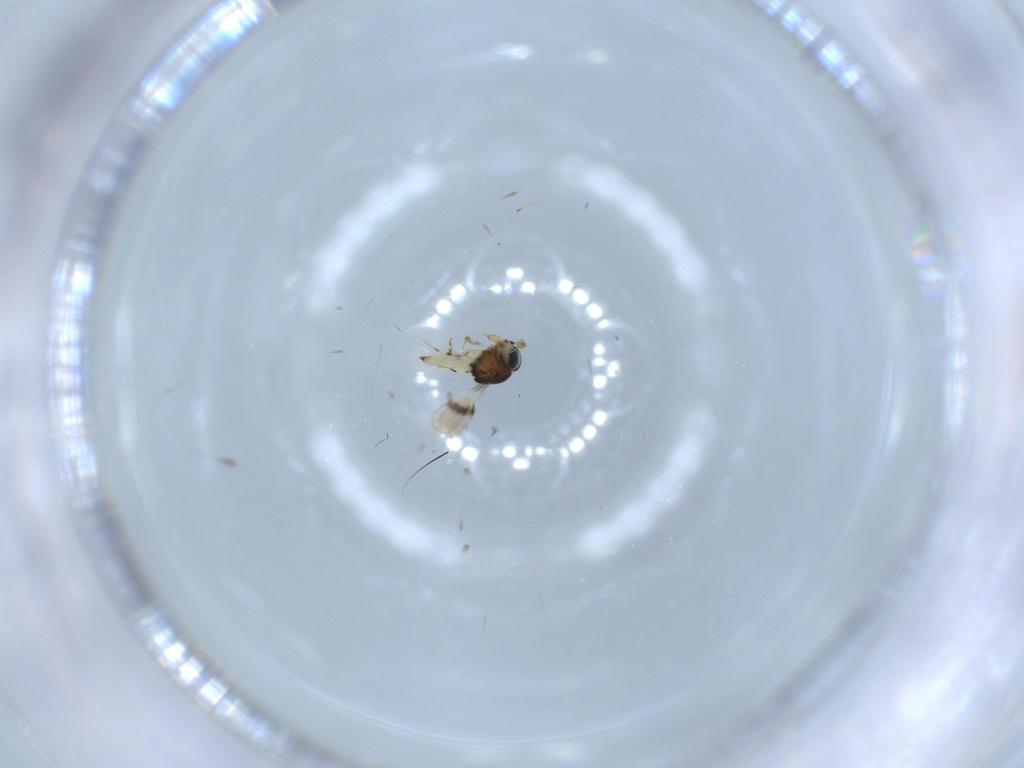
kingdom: Animalia
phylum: Arthropoda
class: Insecta
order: Hymenoptera
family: Scelionidae
